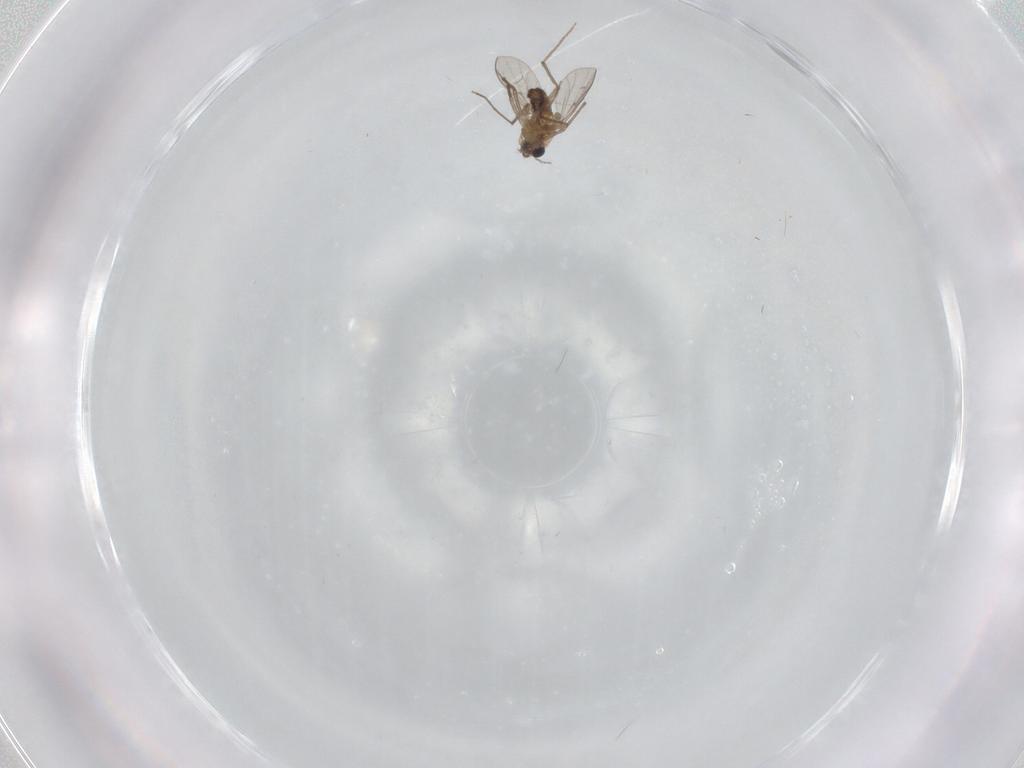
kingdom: Animalia
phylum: Arthropoda
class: Insecta
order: Diptera
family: Chironomidae
